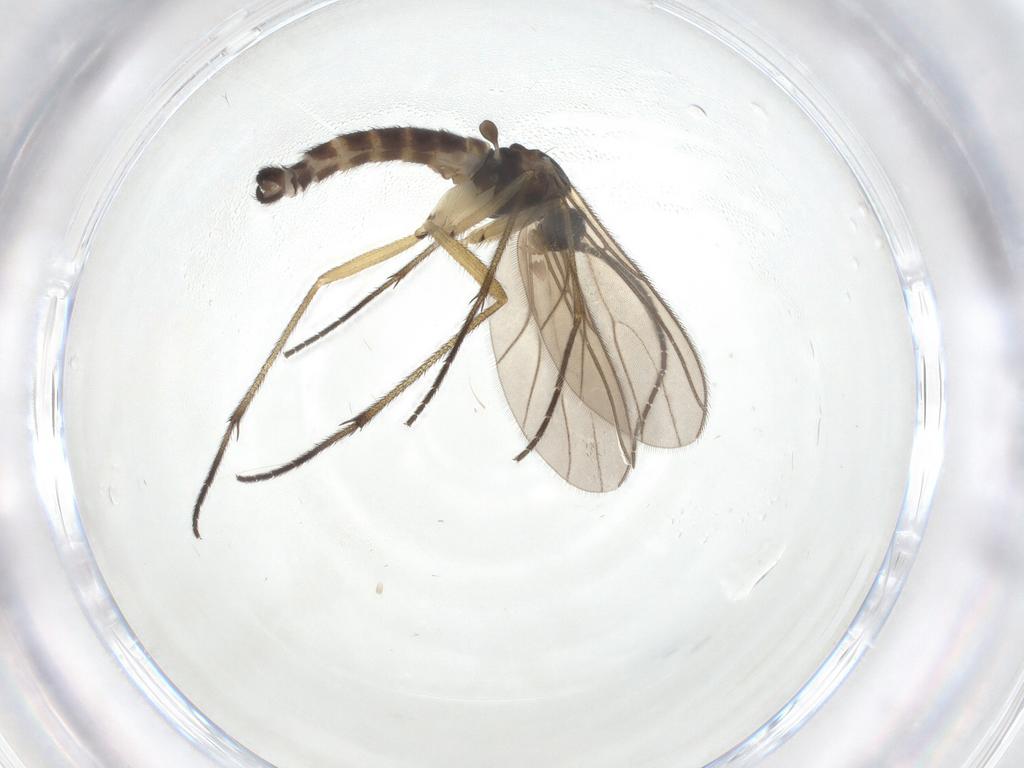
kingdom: Animalia
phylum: Arthropoda
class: Insecta
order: Diptera
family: Sciaridae
